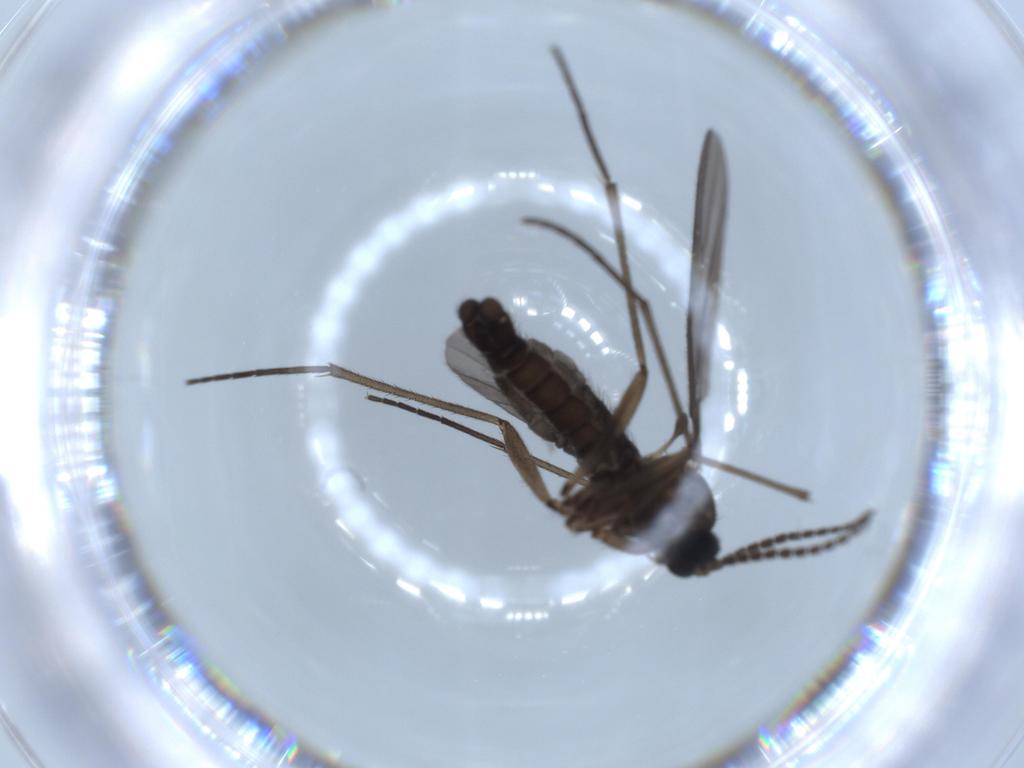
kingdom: Animalia
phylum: Arthropoda
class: Insecta
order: Diptera
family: Sciaridae
